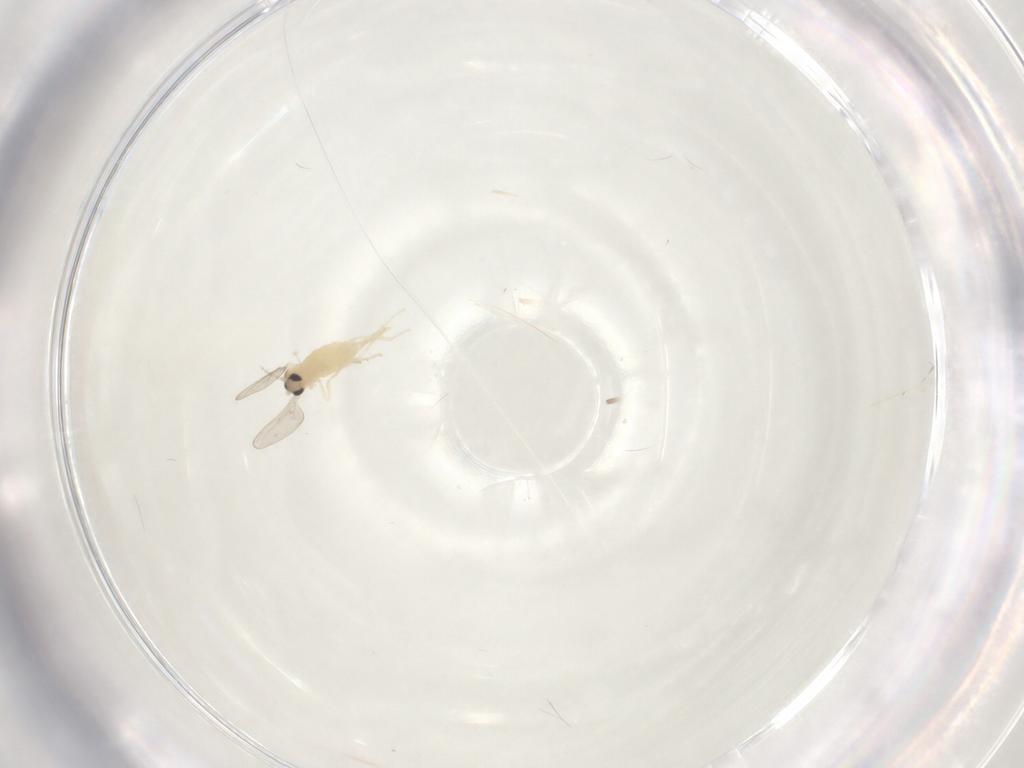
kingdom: Animalia
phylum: Arthropoda
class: Insecta
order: Diptera
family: Cecidomyiidae
